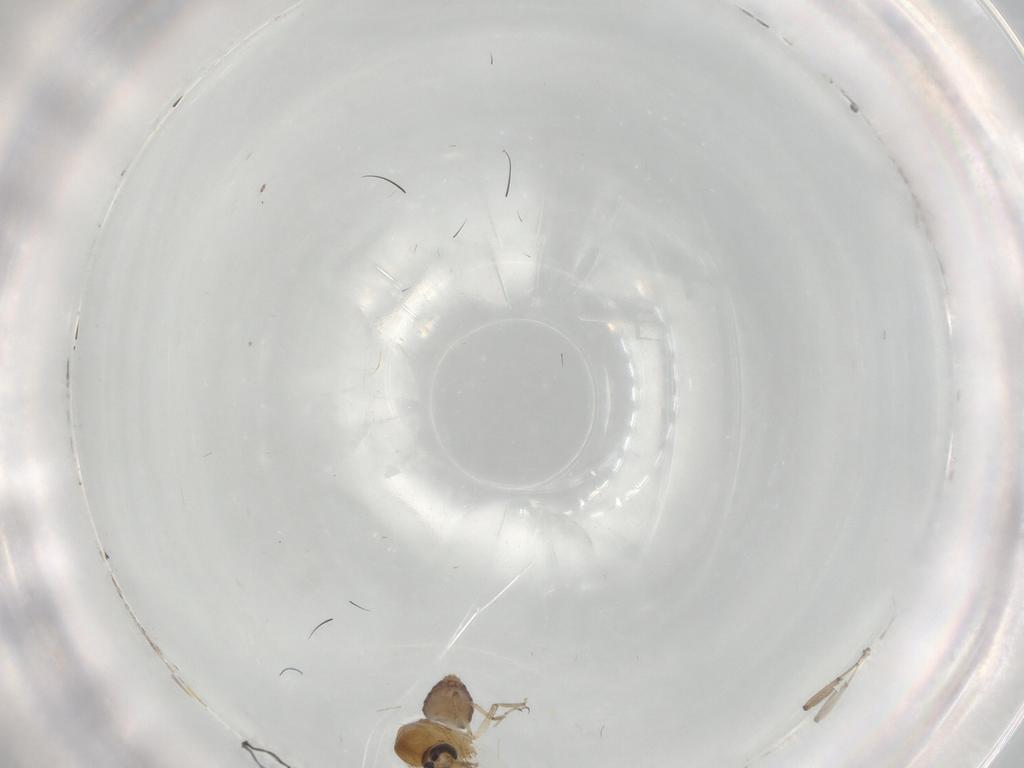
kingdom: Animalia
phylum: Arthropoda
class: Insecta
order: Diptera
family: Ceratopogonidae
